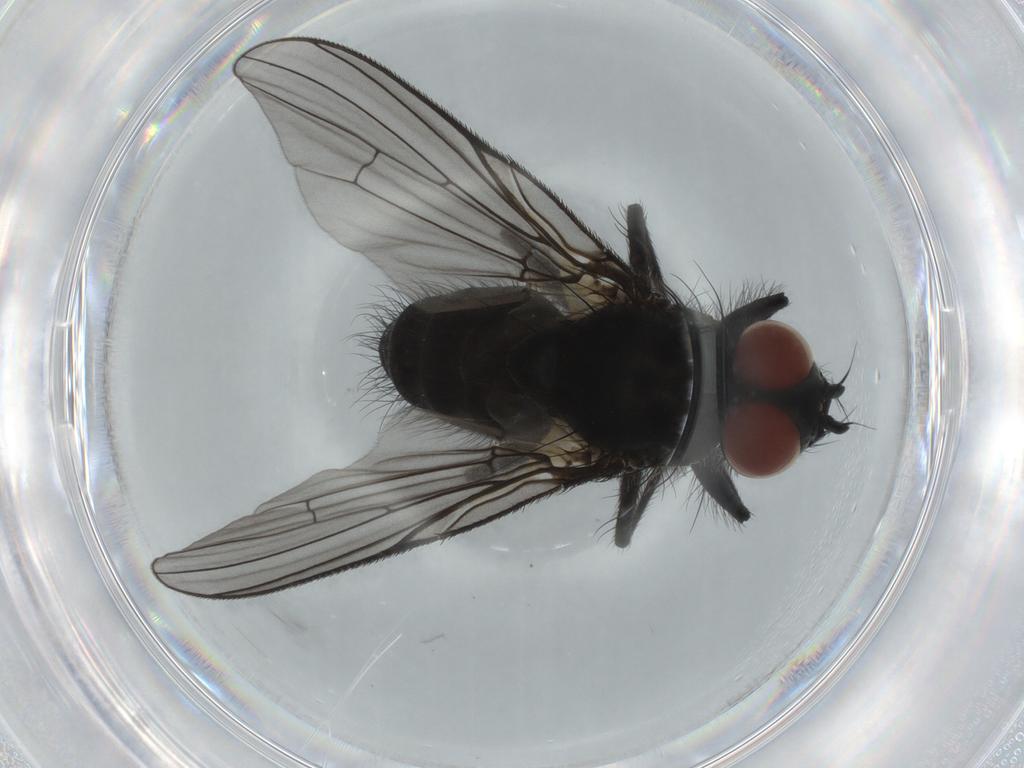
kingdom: Animalia
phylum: Arthropoda
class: Insecta
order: Diptera
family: Muscidae
